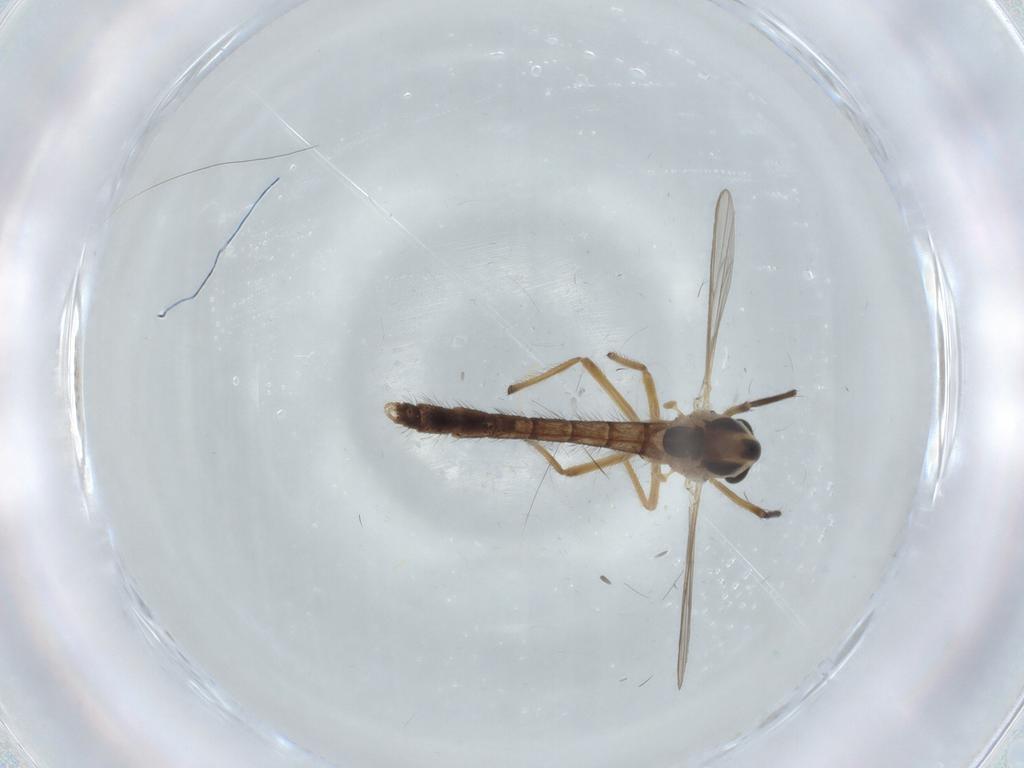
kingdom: Animalia
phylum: Arthropoda
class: Insecta
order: Diptera
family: Chironomidae
